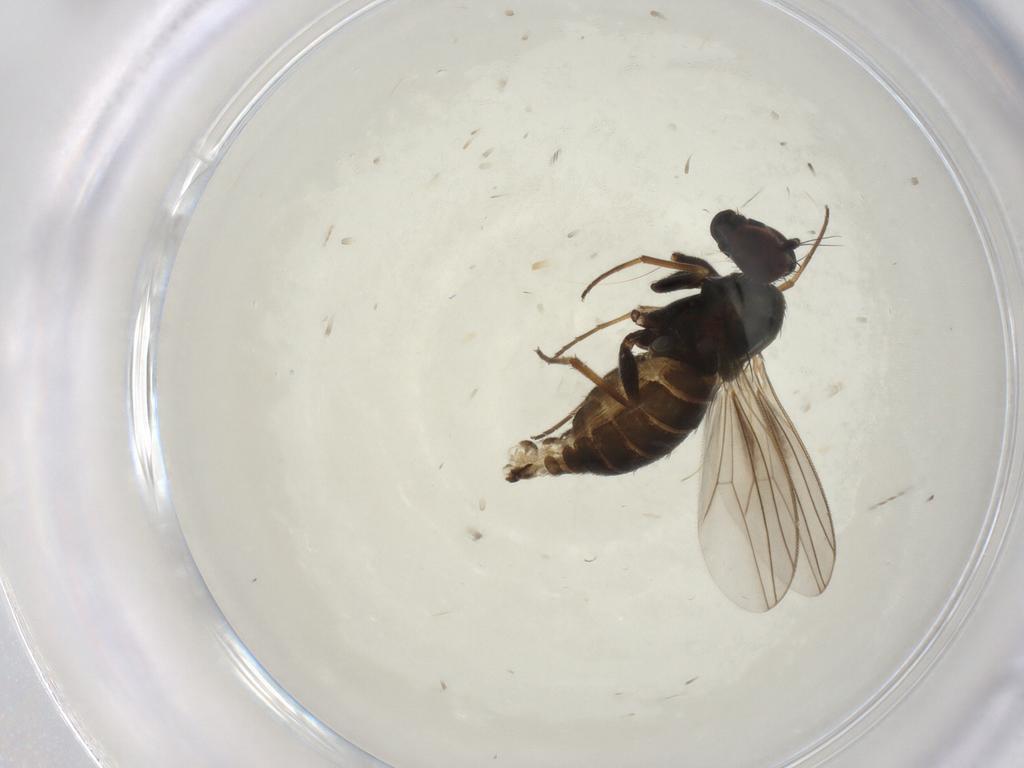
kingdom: Animalia
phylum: Arthropoda
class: Insecta
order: Diptera
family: Dolichopodidae
